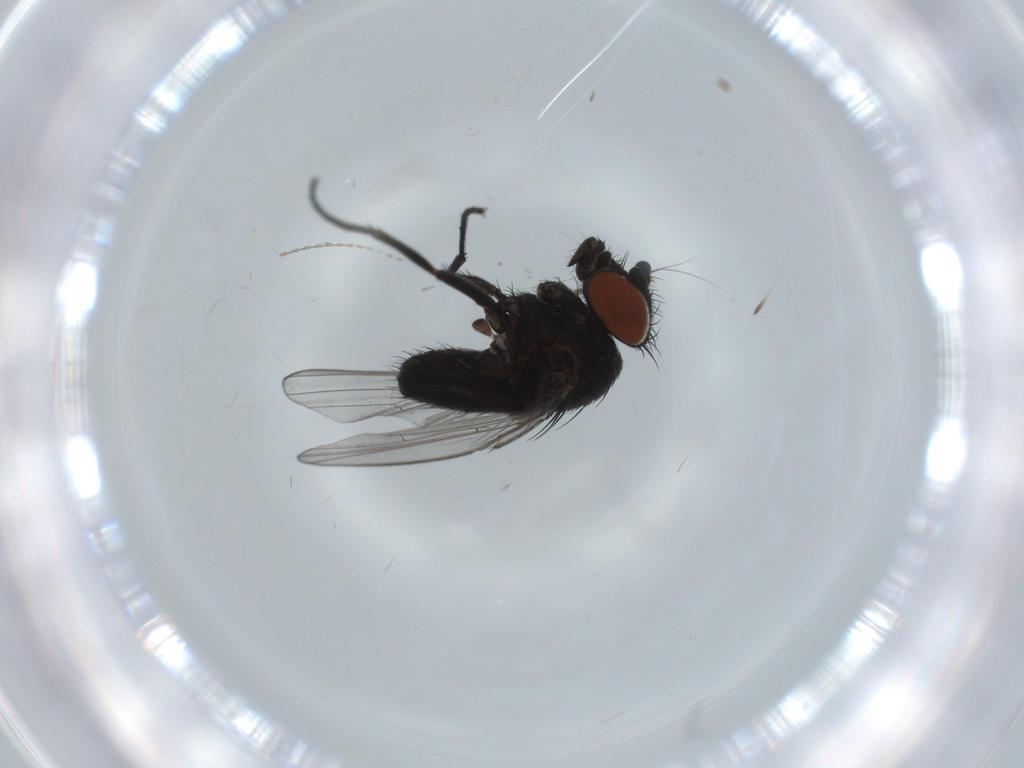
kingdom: Animalia
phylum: Arthropoda
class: Insecta
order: Diptera
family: Milichiidae
